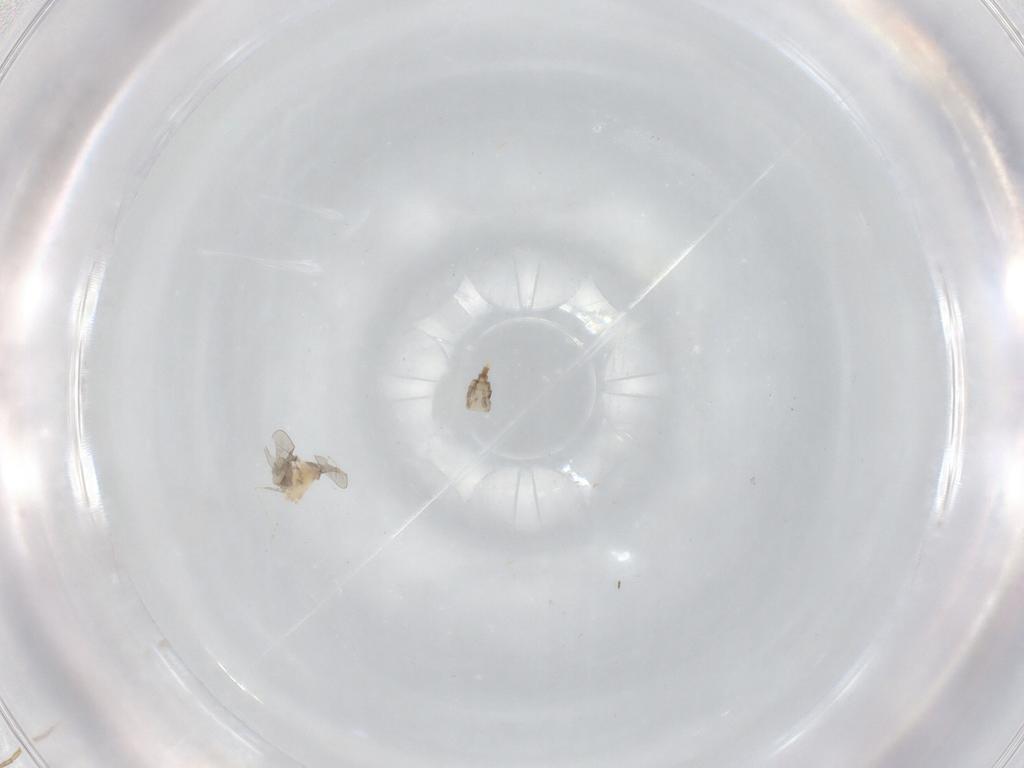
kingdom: Animalia
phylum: Arthropoda
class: Insecta
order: Diptera
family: Cecidomyiidae
